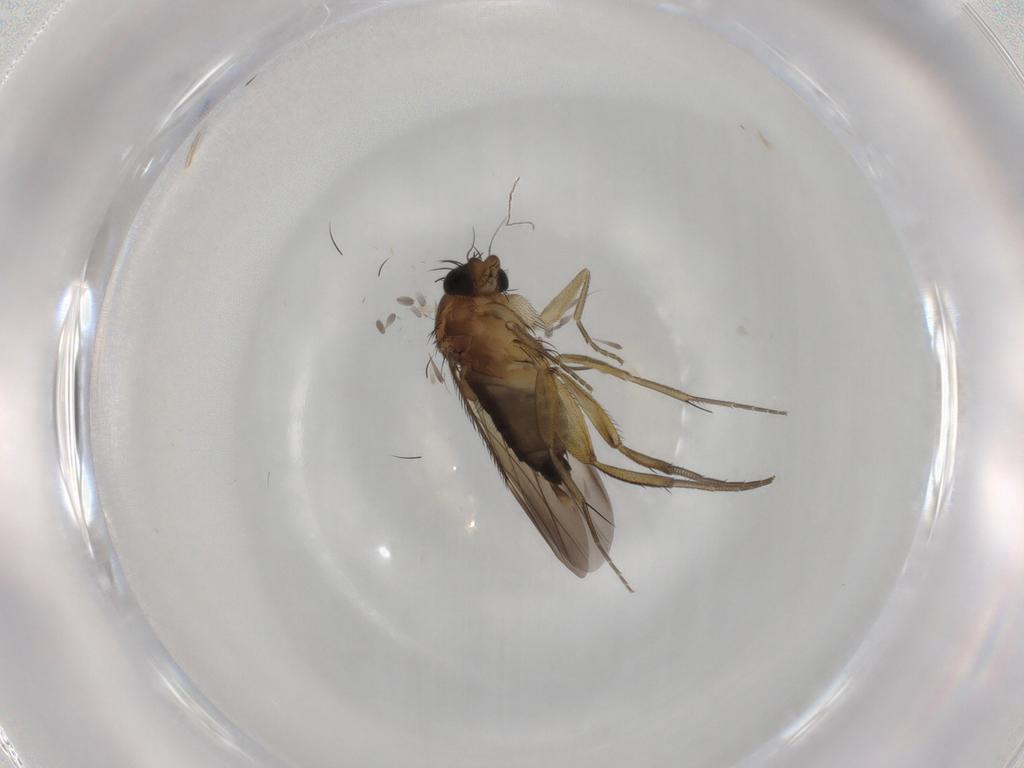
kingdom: Animalia
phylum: Arthropoda
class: Insecta
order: Diptera
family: Phoridae
